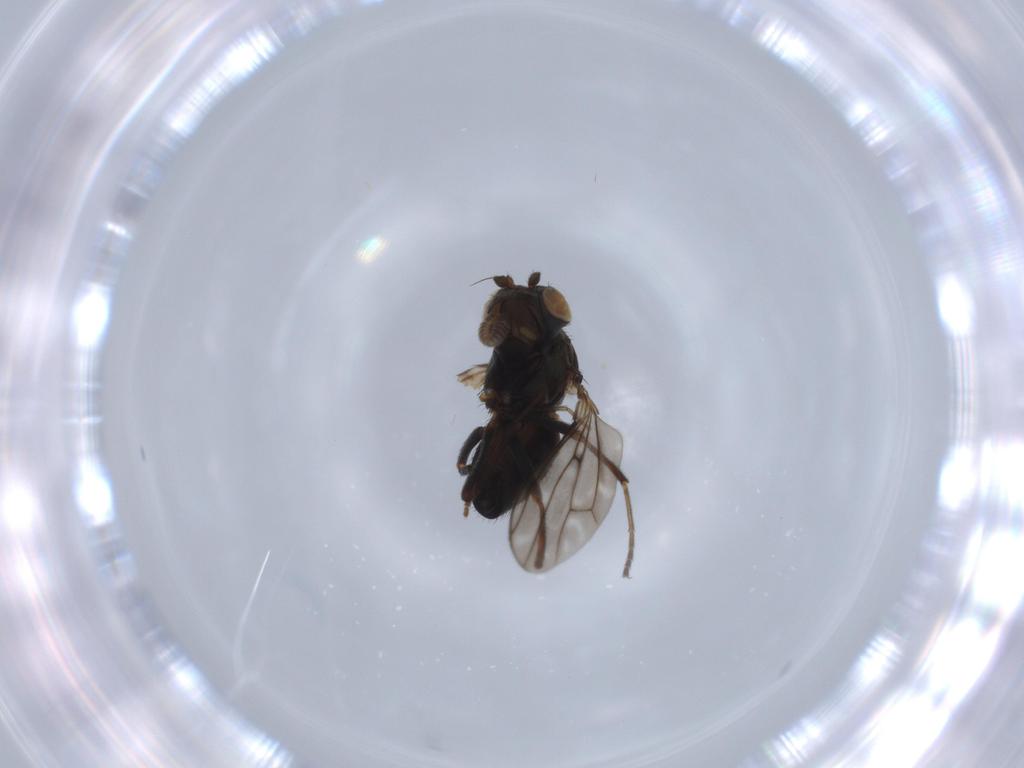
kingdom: Animalia
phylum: Arthropoda
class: Insecta
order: Diptera
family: Ephydridae
